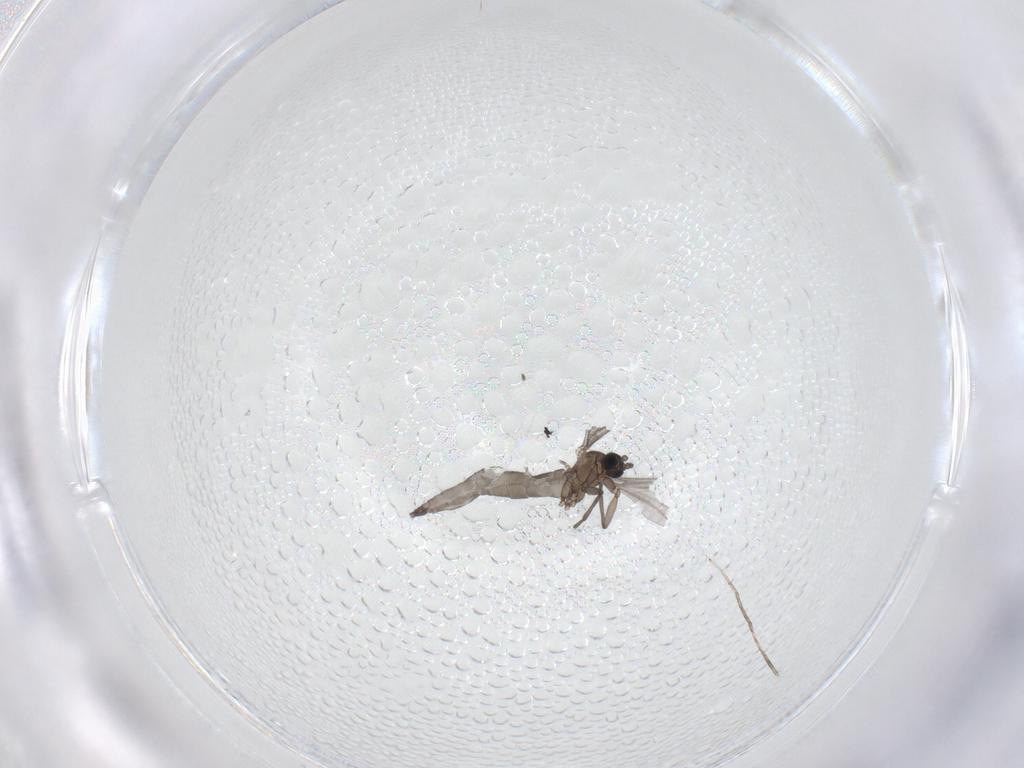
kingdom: Animalia
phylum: Arthropoda
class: Insecta
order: Diptera
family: Sciaridae
